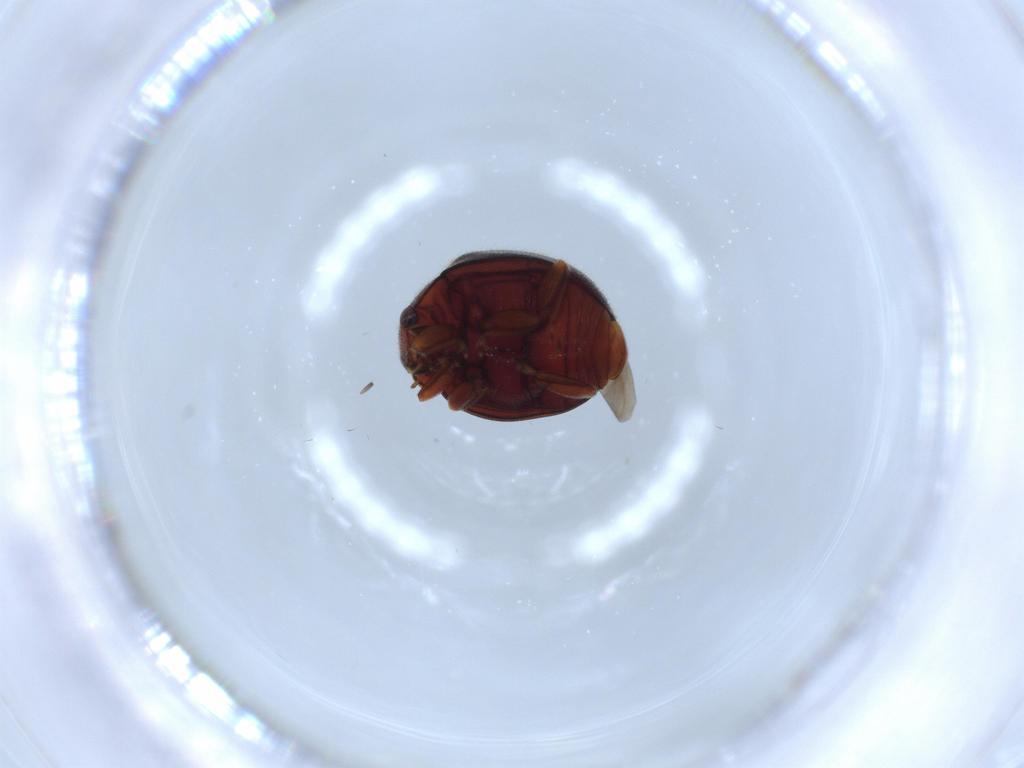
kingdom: Animalia
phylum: Arthropoda
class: Insecta
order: Coleoptera
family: Coccinellidae
